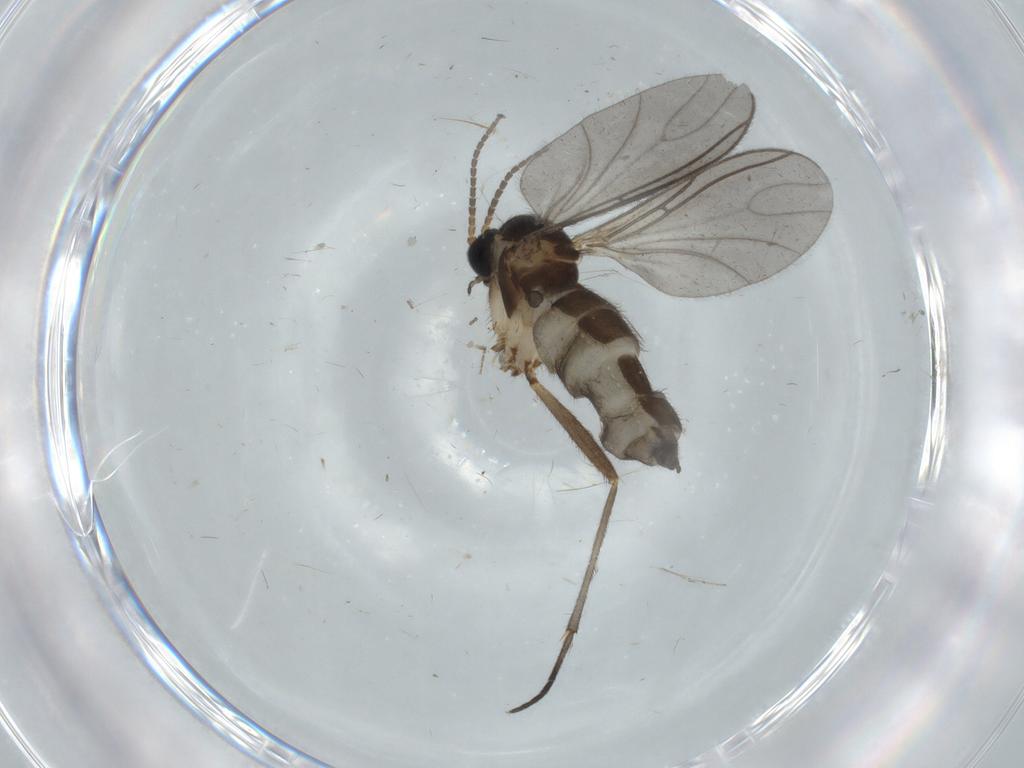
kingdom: Animalia
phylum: Arthropoda
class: Insecta
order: Diptera
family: Sciaridae
